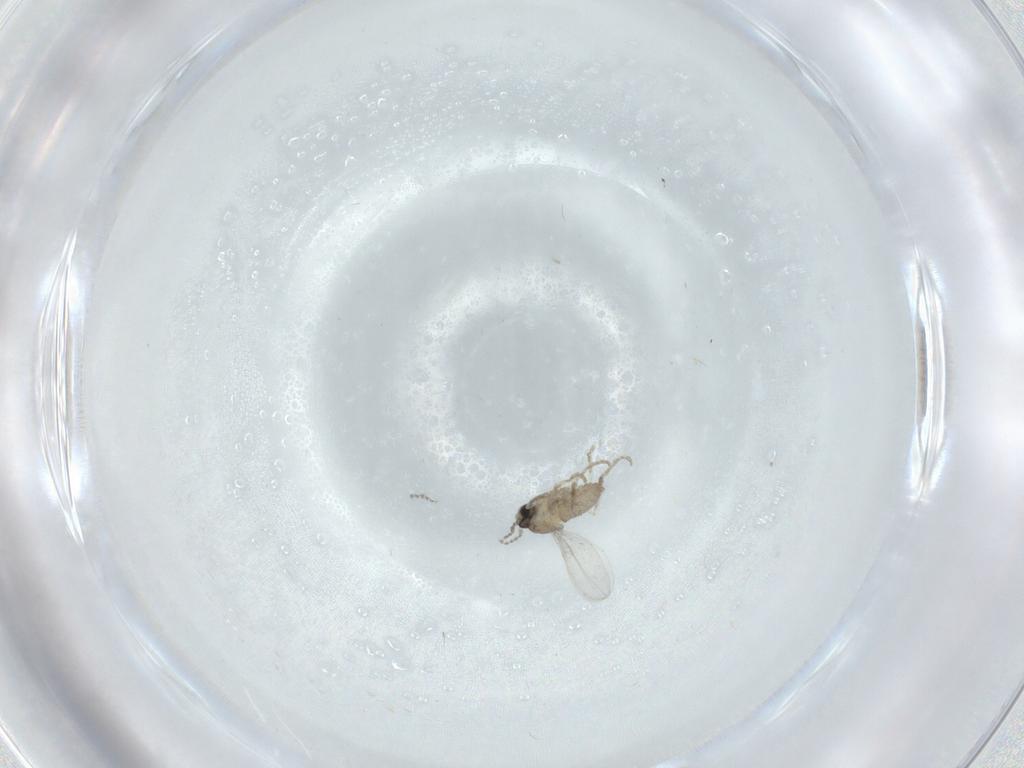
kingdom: Animalia
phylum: Arthropoda
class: Insecta
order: Diptera
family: Cecidomyiidae
